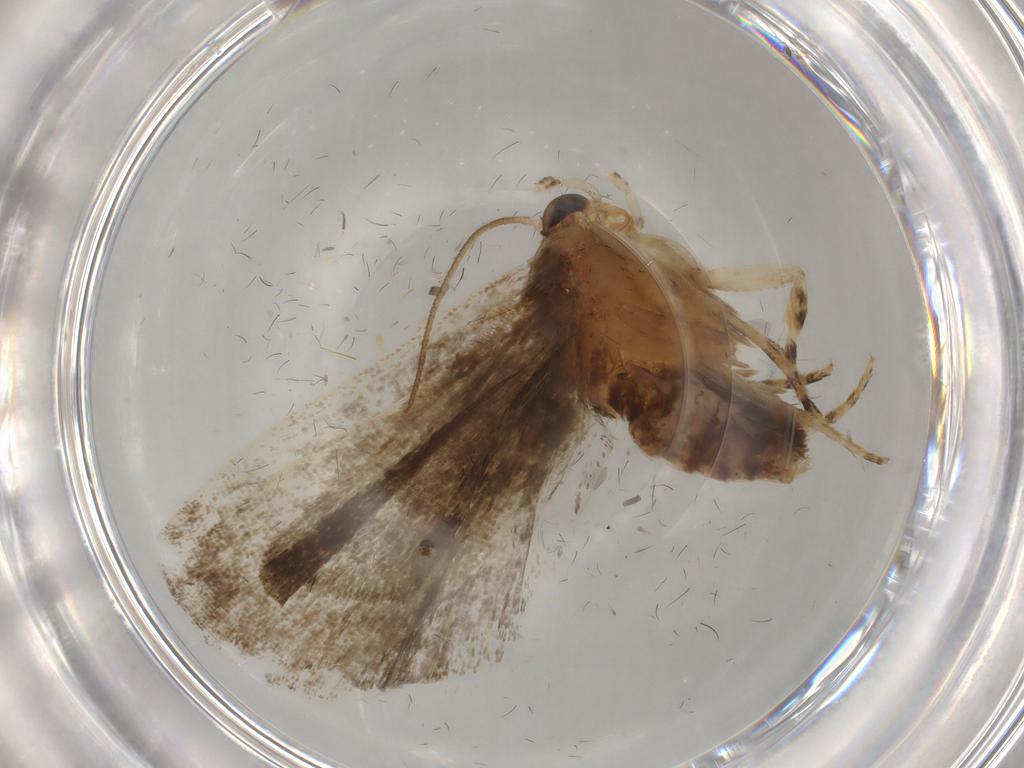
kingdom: Animalia
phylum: Arthropoda
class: Insecta
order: Lepidoptera
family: Immidae
